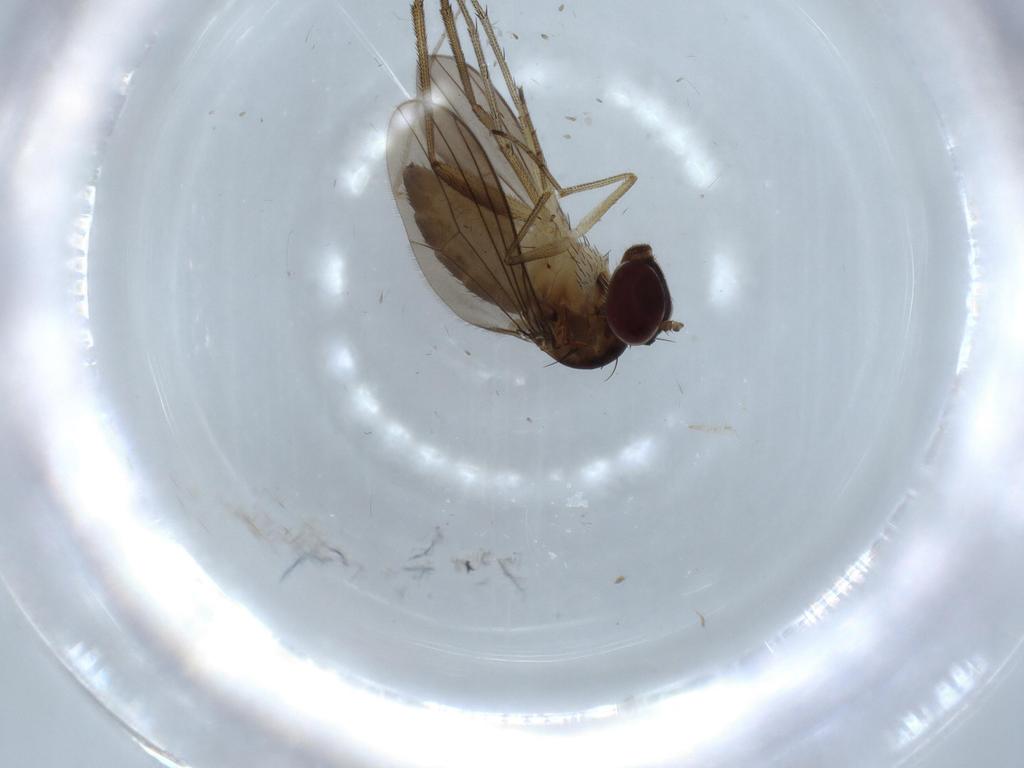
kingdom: Animalia
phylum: Arthropoda
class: Insecta
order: Diptera
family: Dolichopodidae
